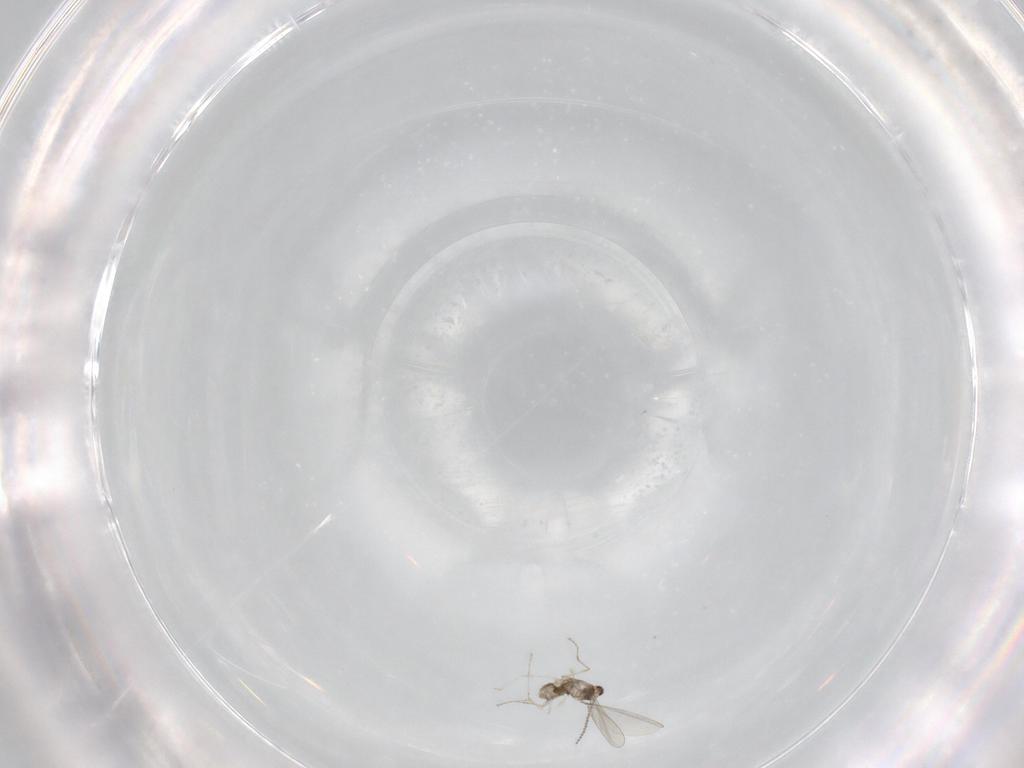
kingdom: Animalia
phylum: Arthropoda
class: Insecta
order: Diptera
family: Cecidomyiidae
